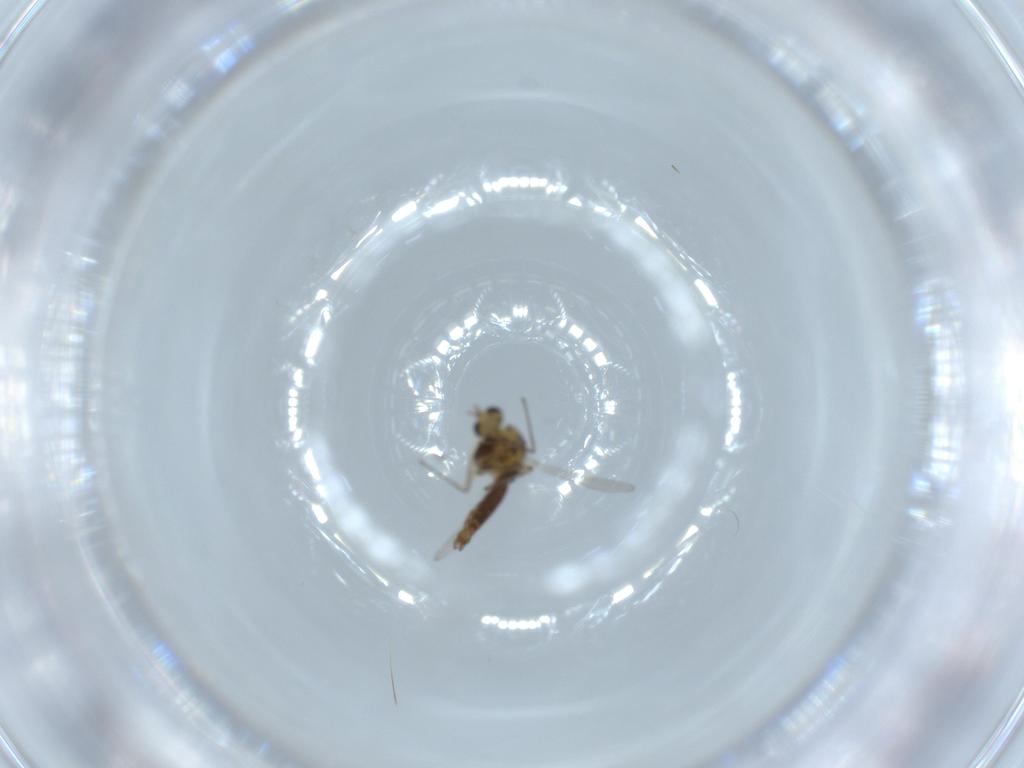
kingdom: Animalia
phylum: Arthropoda
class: Insecta
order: Diptera
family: Chironomidae
